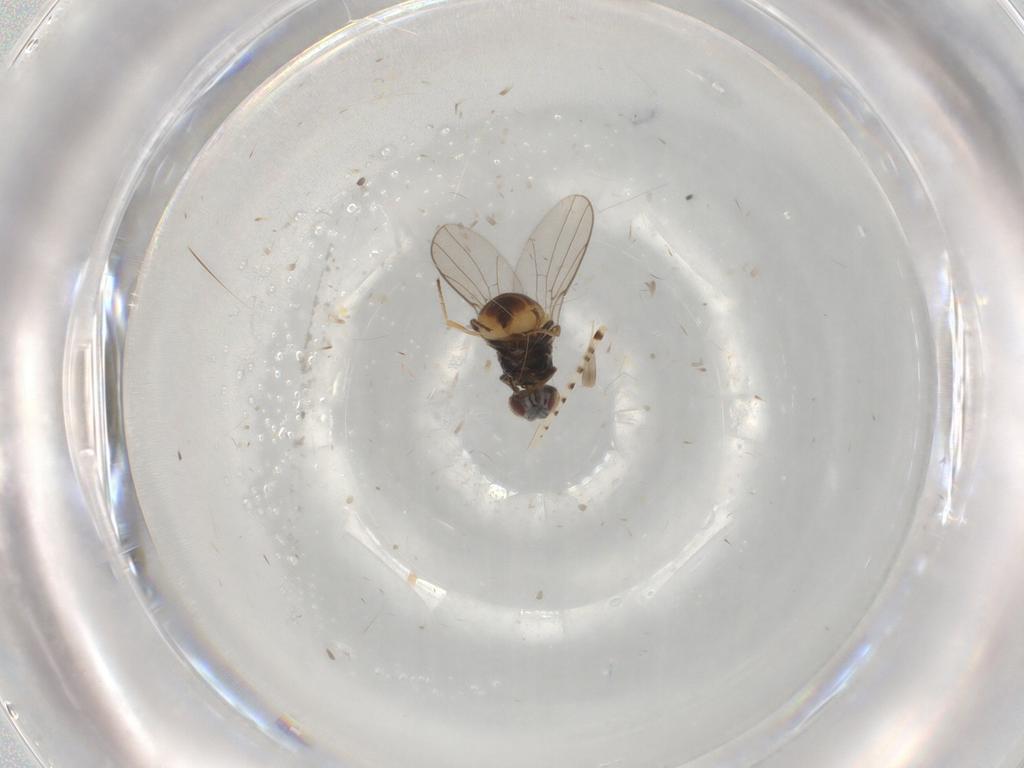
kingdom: Animalia
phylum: Arthropoda
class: Insecta
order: Diptera
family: Chloropidae
